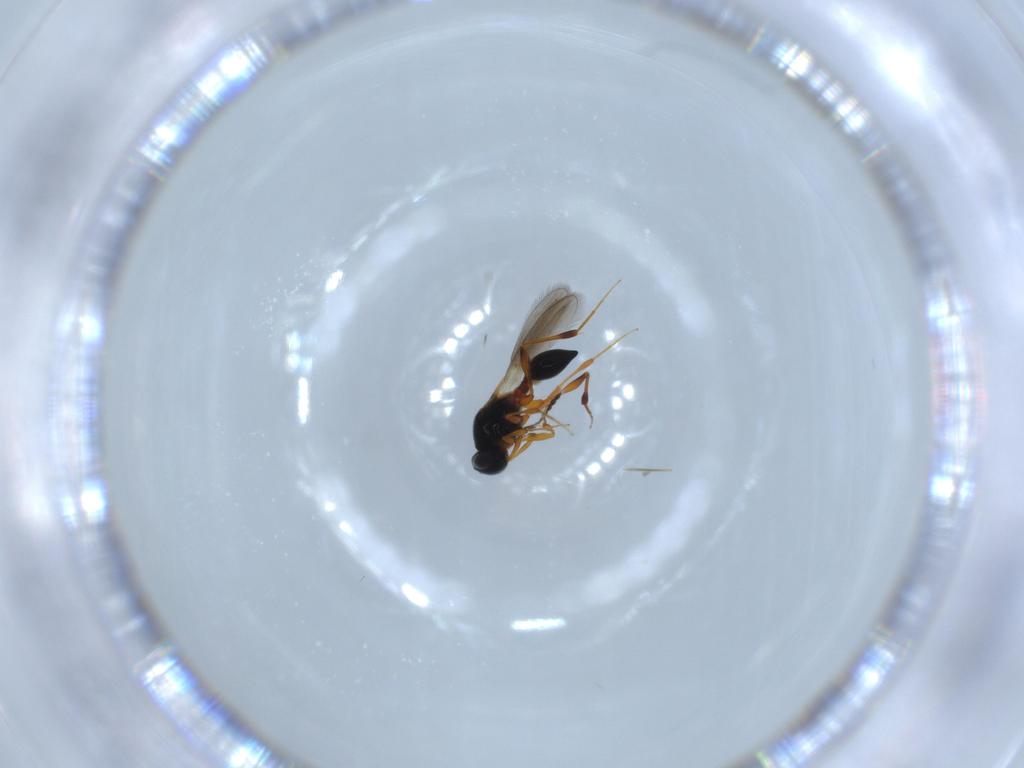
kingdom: Animalia
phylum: Arthropoda
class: Insecta
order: Hymenoptera
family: Platygastridae
